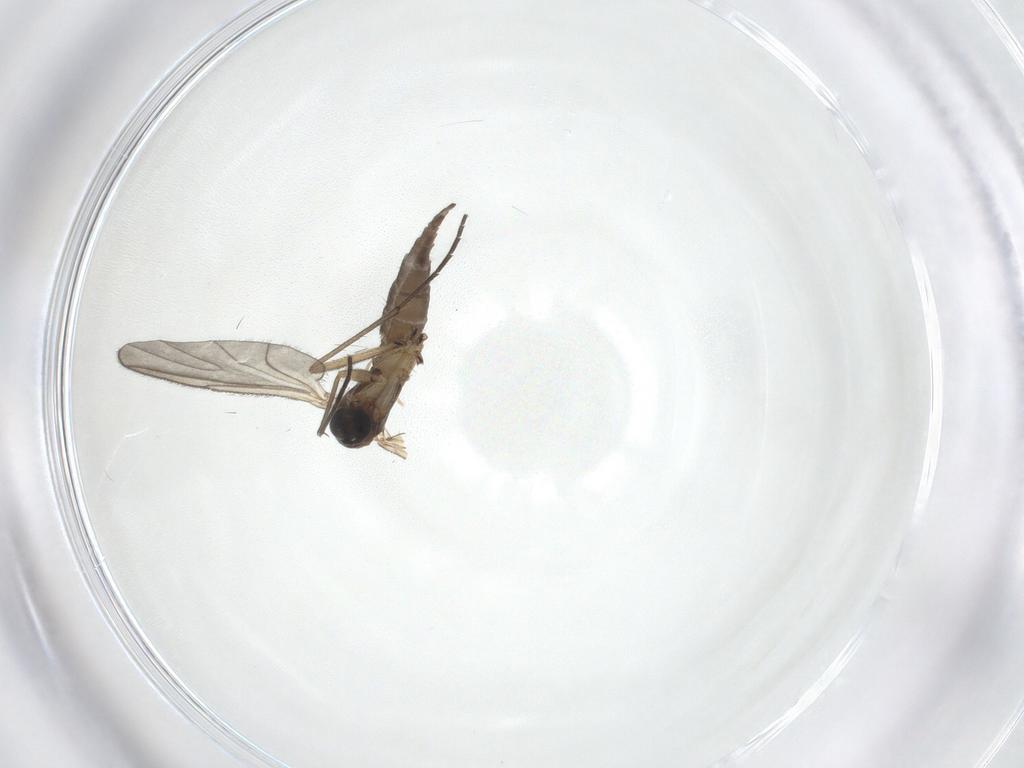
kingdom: Animalia
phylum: Arthropoda
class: Insecta
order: Diptera
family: Sciaridae
